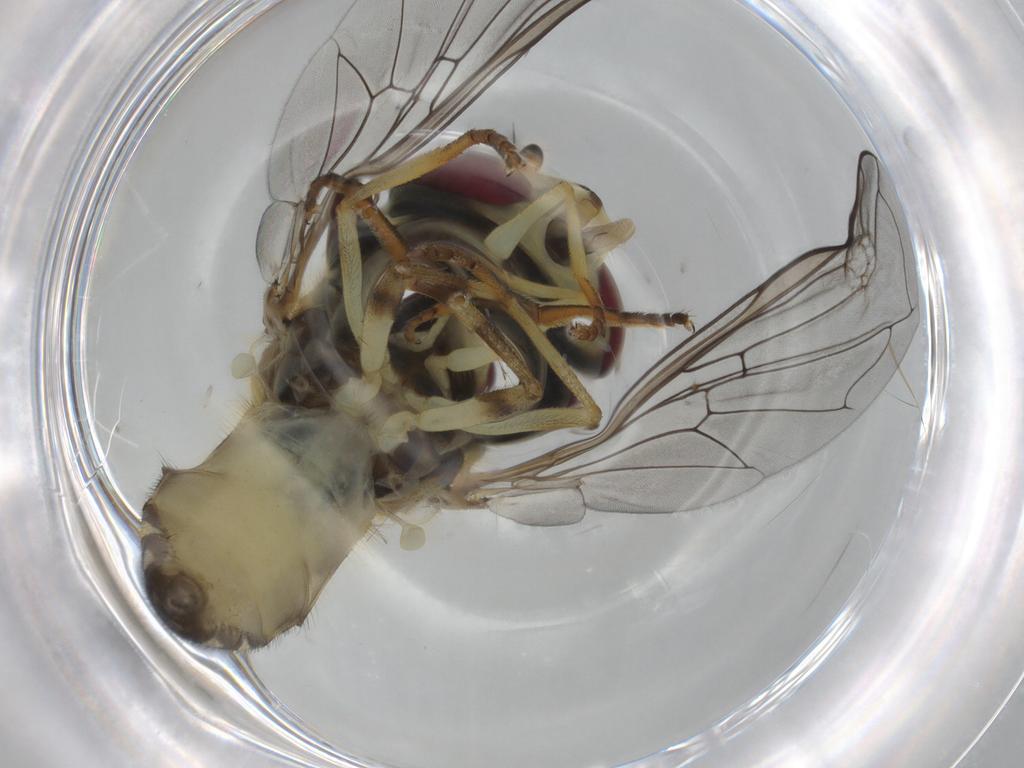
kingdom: Animalia
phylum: Arthropoda
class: Insecta
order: Diptera
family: Syrphidae
